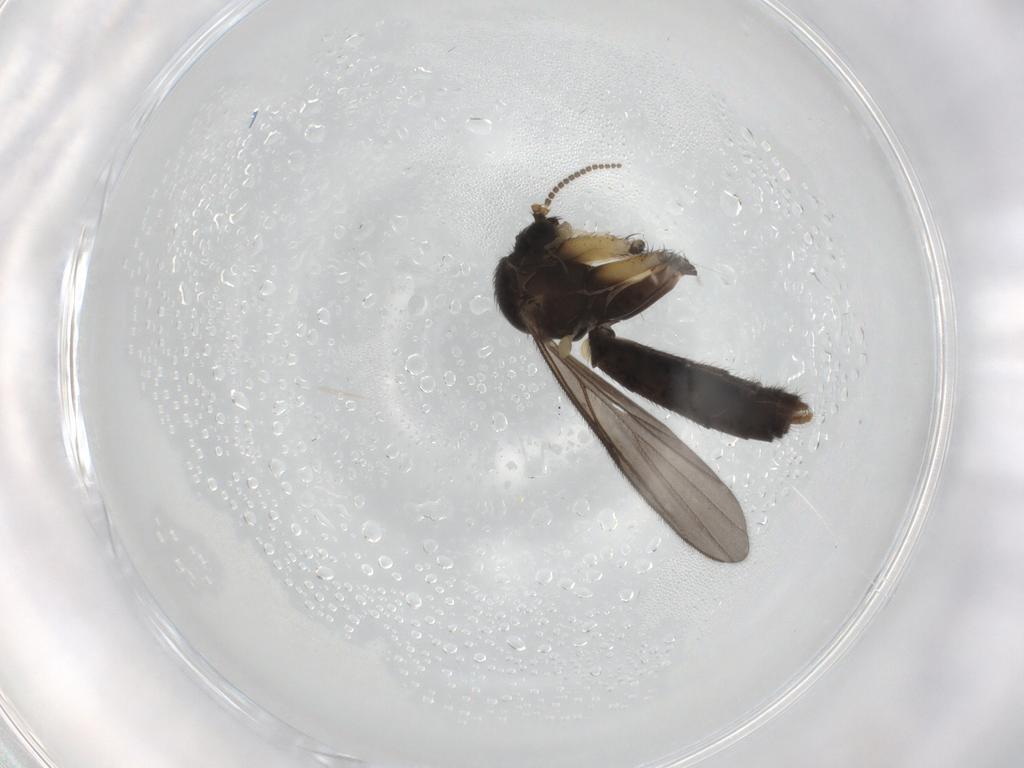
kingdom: Animalia
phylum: Arthropoda
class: Insecta
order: Diptera
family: Mycetophilidae
